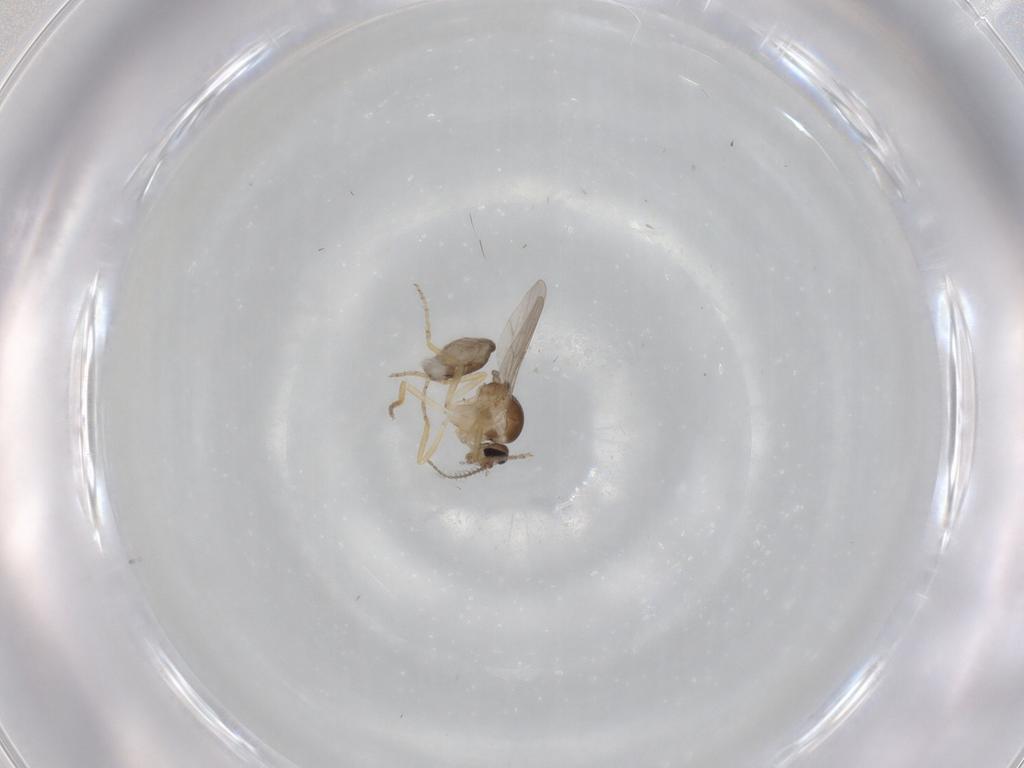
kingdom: Animalia
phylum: Arthropoda
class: Insecta
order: Diptera
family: Ceratopogonidae
